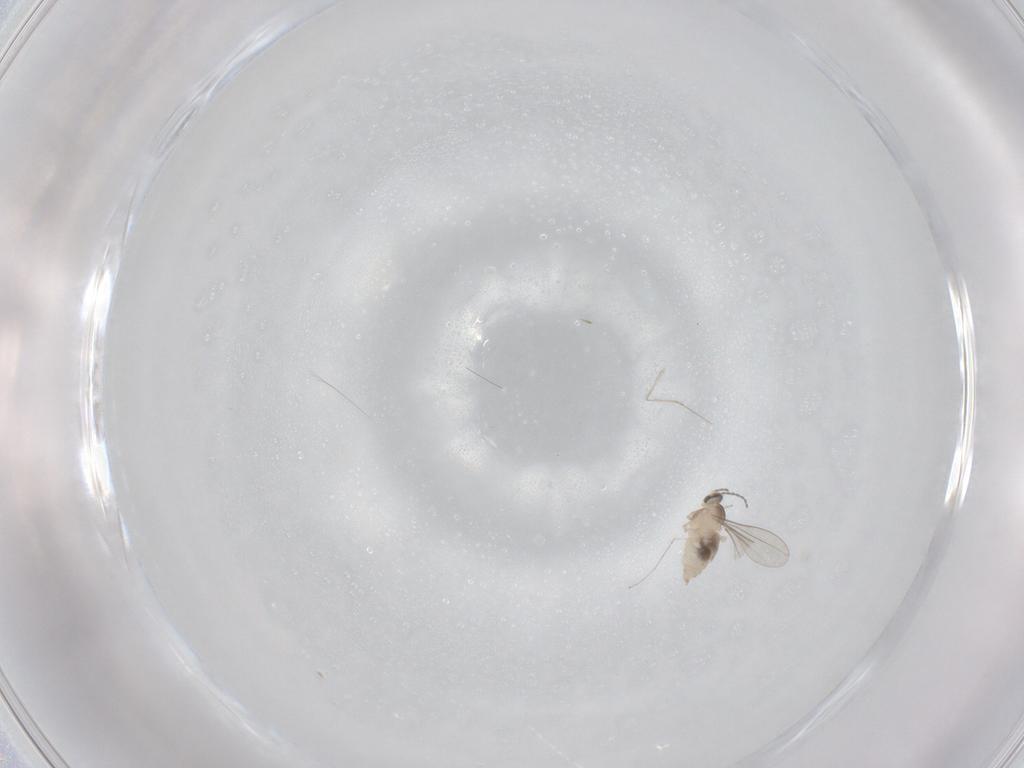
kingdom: Animalia
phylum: Arthropoda
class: Insecta
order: Diptera
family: Cecidomyiidae
